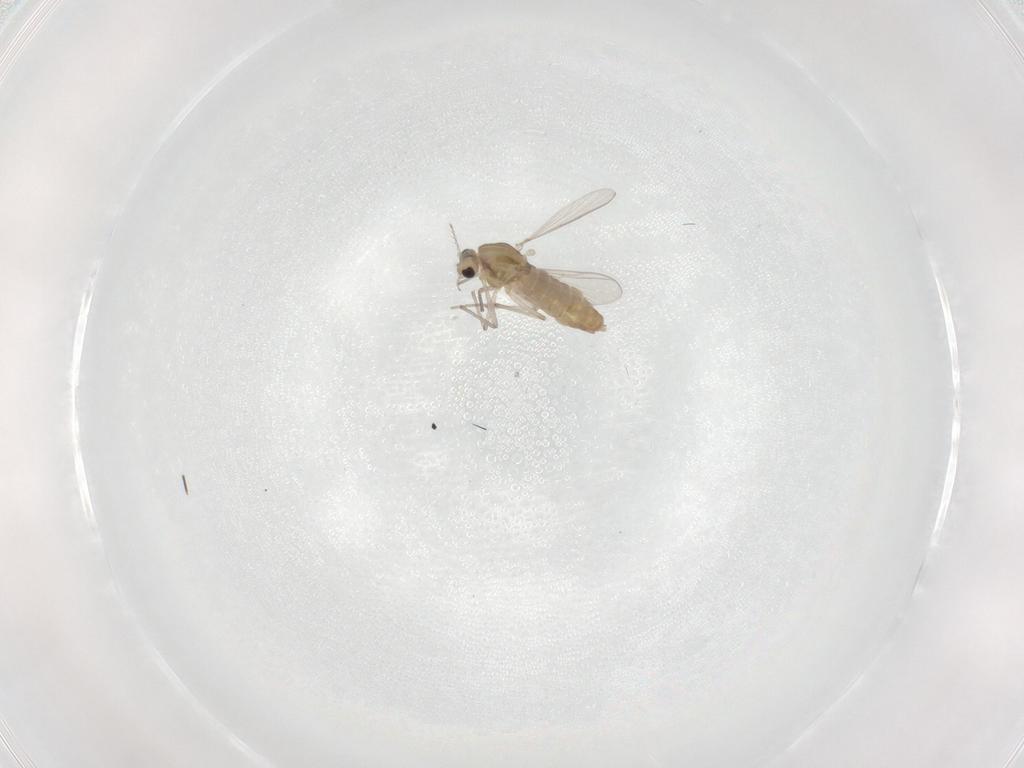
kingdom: Animalia
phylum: Arthropoda
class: Insecta
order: Diptera
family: Chironomidae
